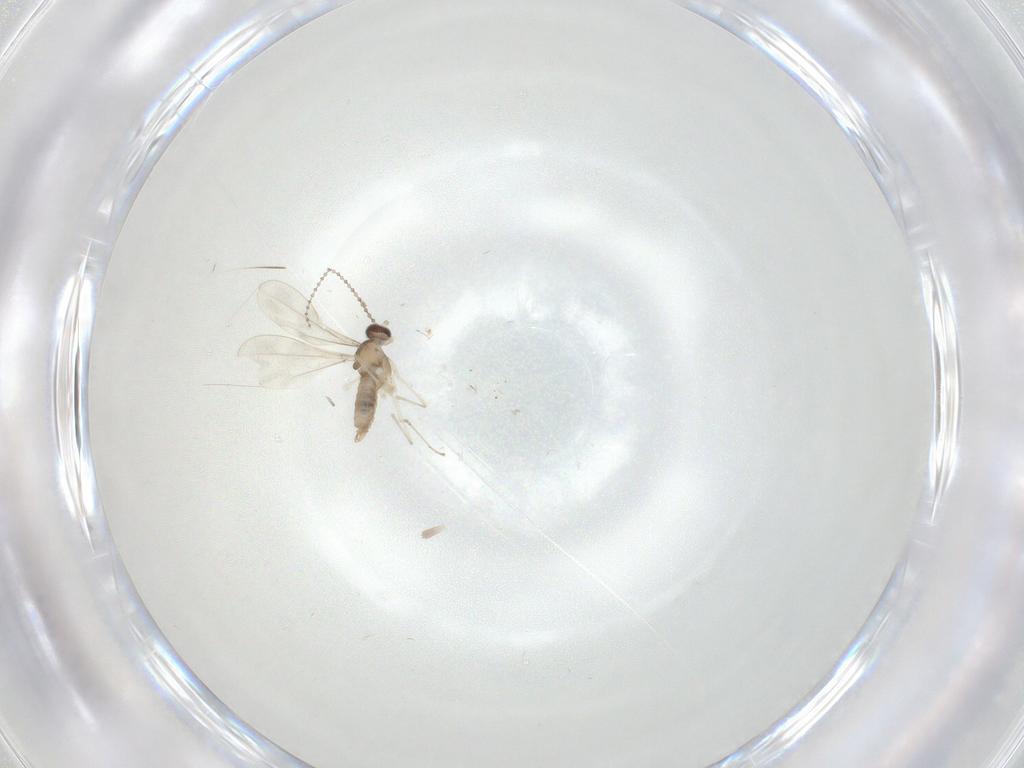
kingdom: Animalia
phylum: Arthropoda
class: Insecta
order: Diptera
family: Cecidomyiidae
